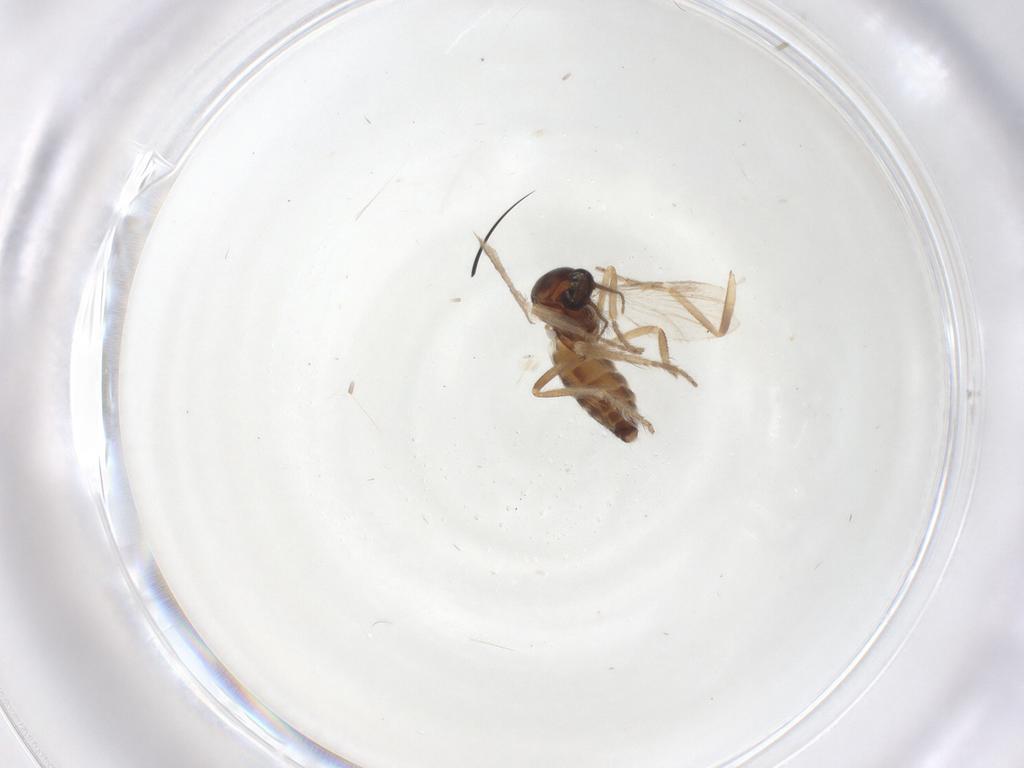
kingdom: Animalia
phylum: Arthropoda
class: Insecta
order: Diptera
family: Ceratopogonidae
